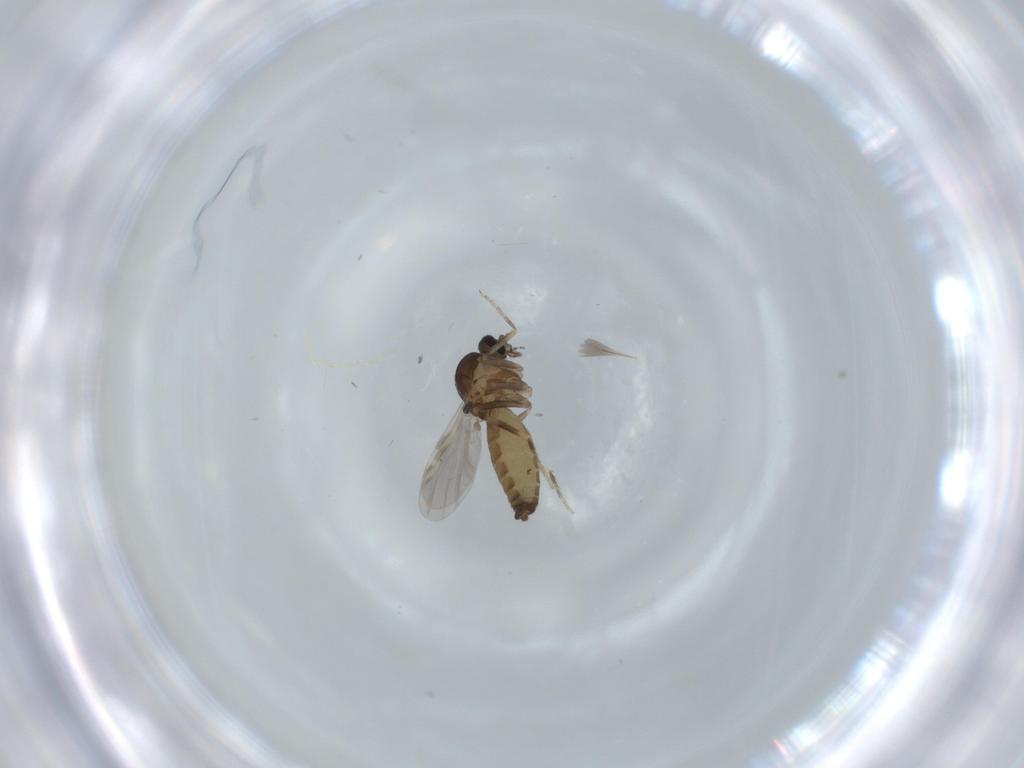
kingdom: Animalia
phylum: Arthropoda
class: Insecta
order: Diptera
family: Ceratopogonidae
